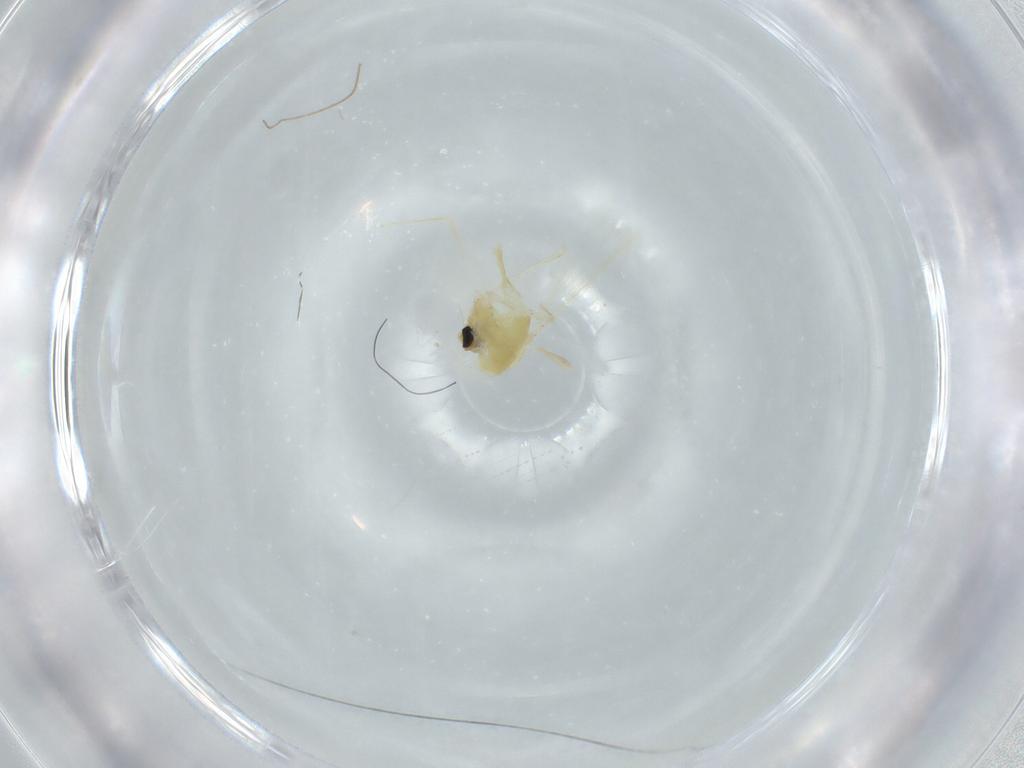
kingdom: Animalia
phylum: Arthropoda
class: Insecta
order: Diptera
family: Chironomidae
